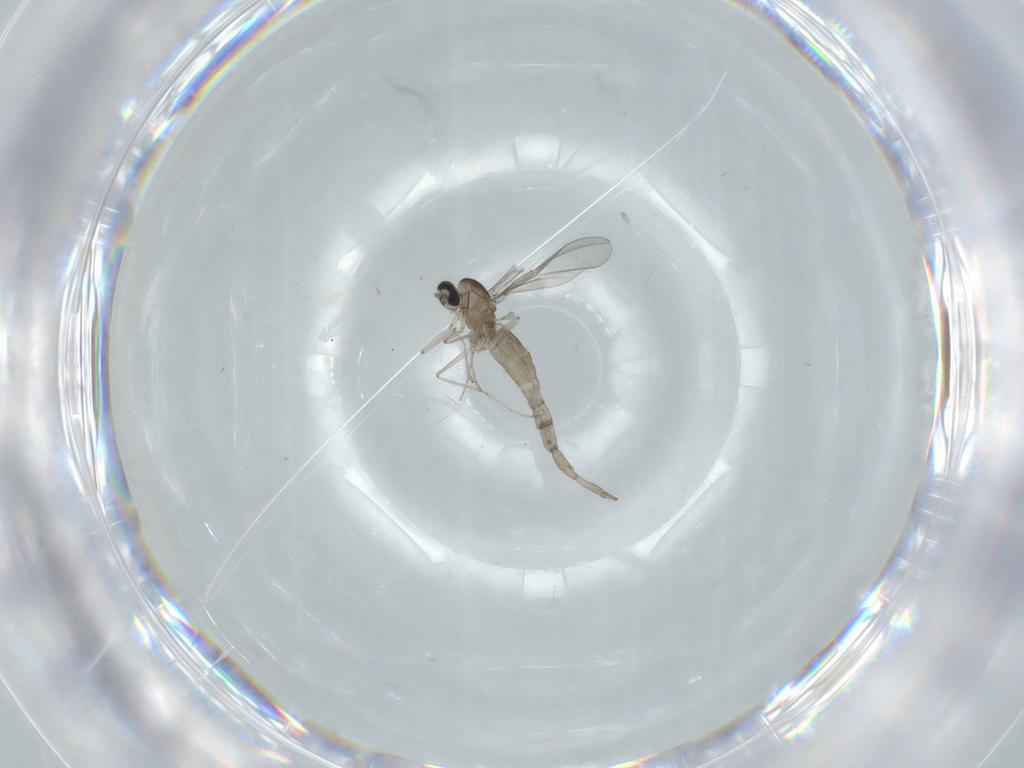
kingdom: Animalia
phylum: Arthropoda
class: Insecta
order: Diptera
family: Cecidomyiidae
